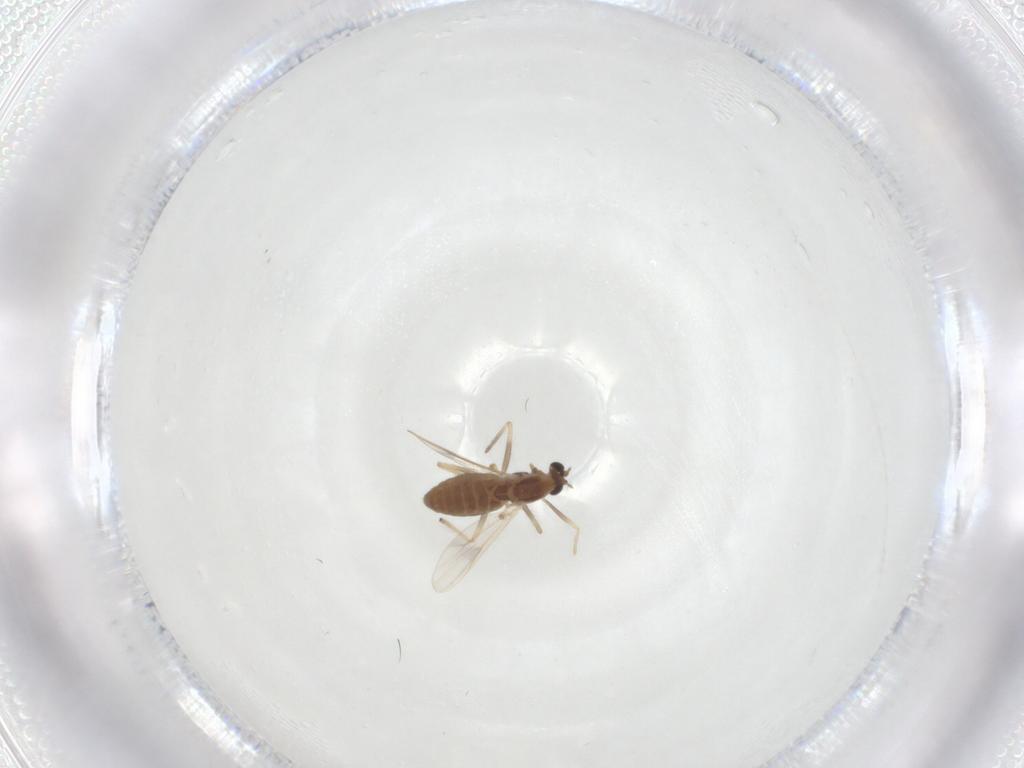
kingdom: Animalia
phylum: Arthropoda
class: Insecta
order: Diptera
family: Chironomidae
